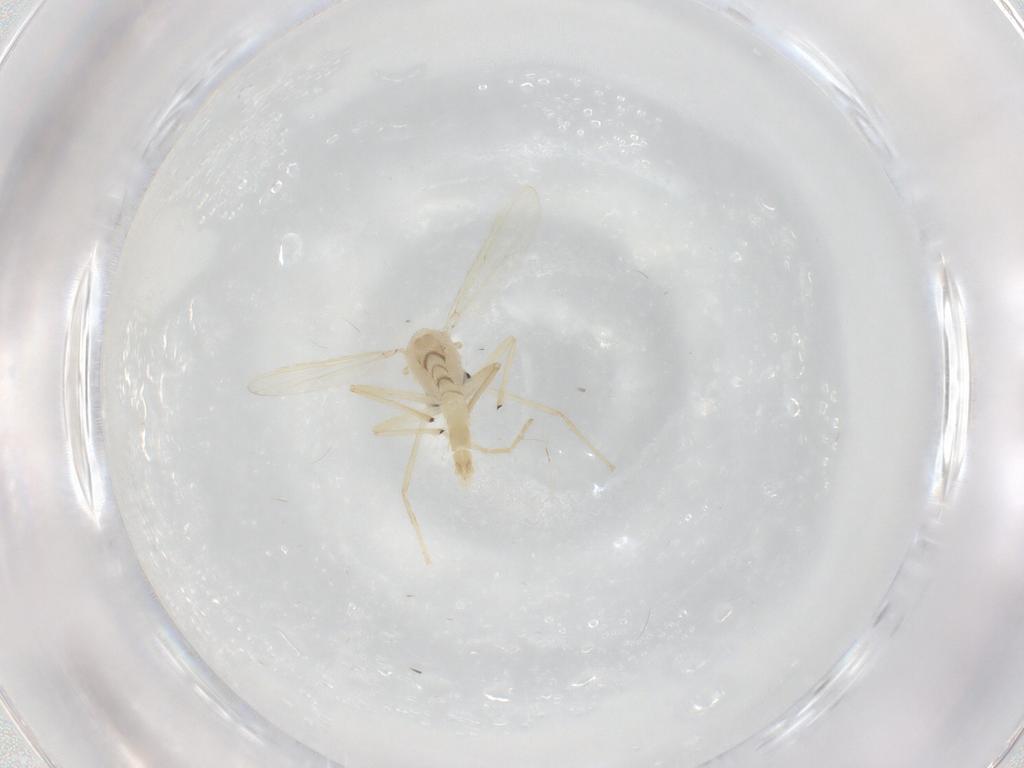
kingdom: Animalia
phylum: Arthropoda
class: Insecta
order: Diptera
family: Chironomidae
